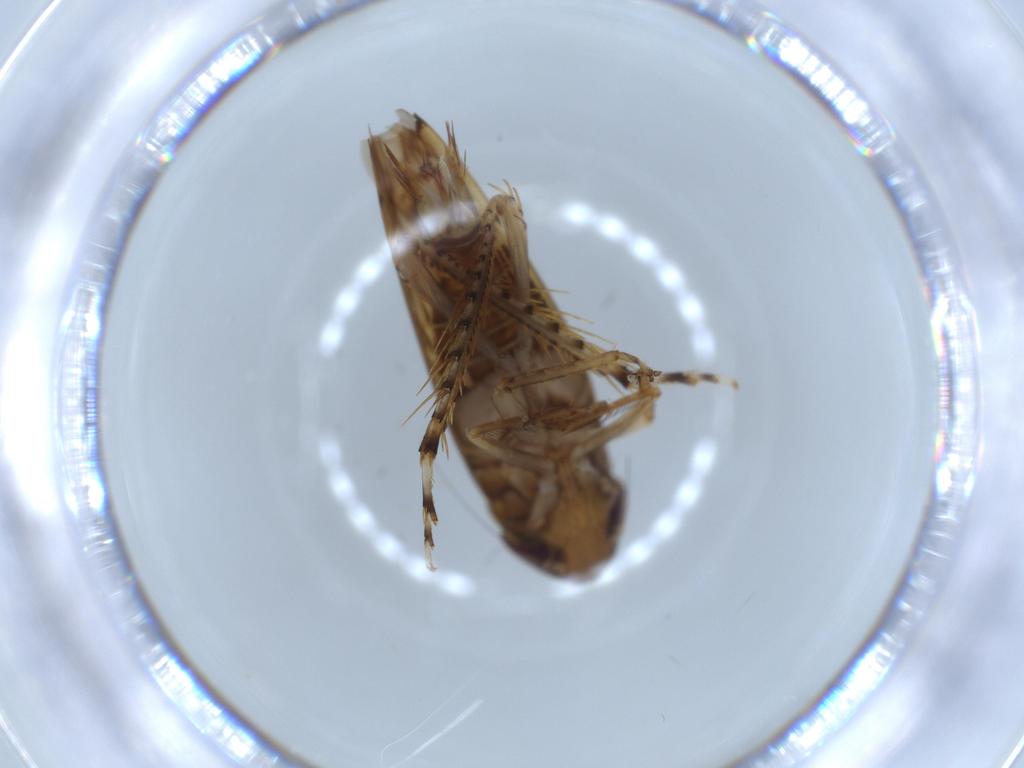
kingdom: Animalia
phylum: Arthropoda
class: Insecta
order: Hemiptera
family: Cicadellidae
